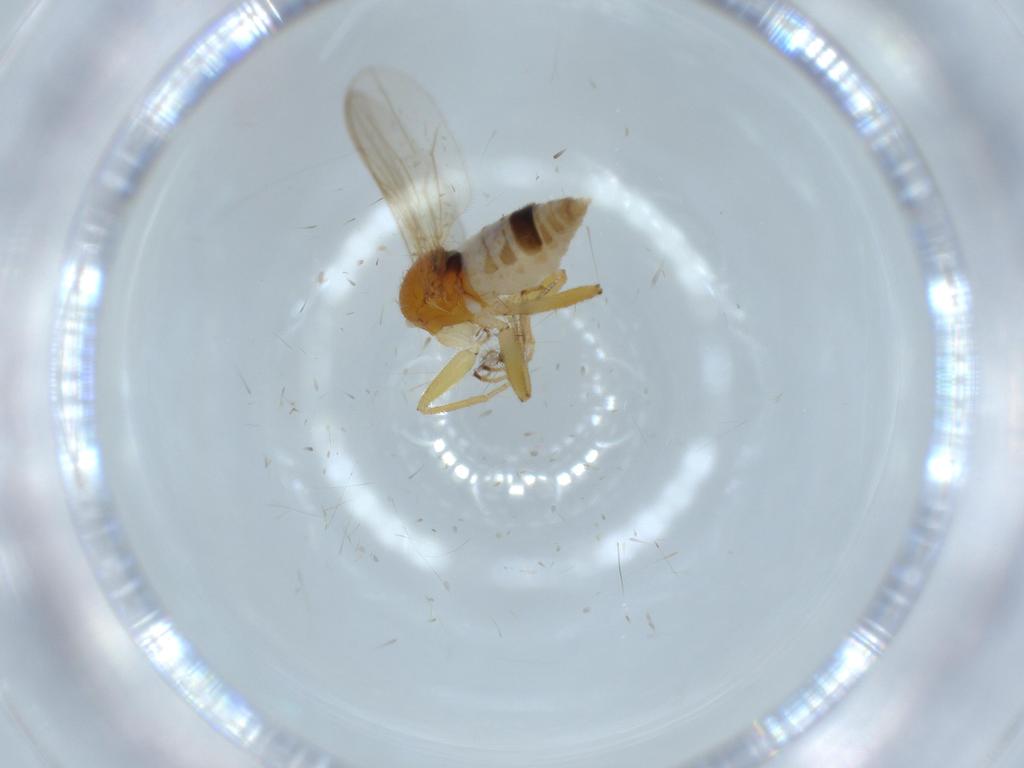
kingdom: Animalia
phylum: Arthropoda
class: Insecta
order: Diptera
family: Hybotidae
